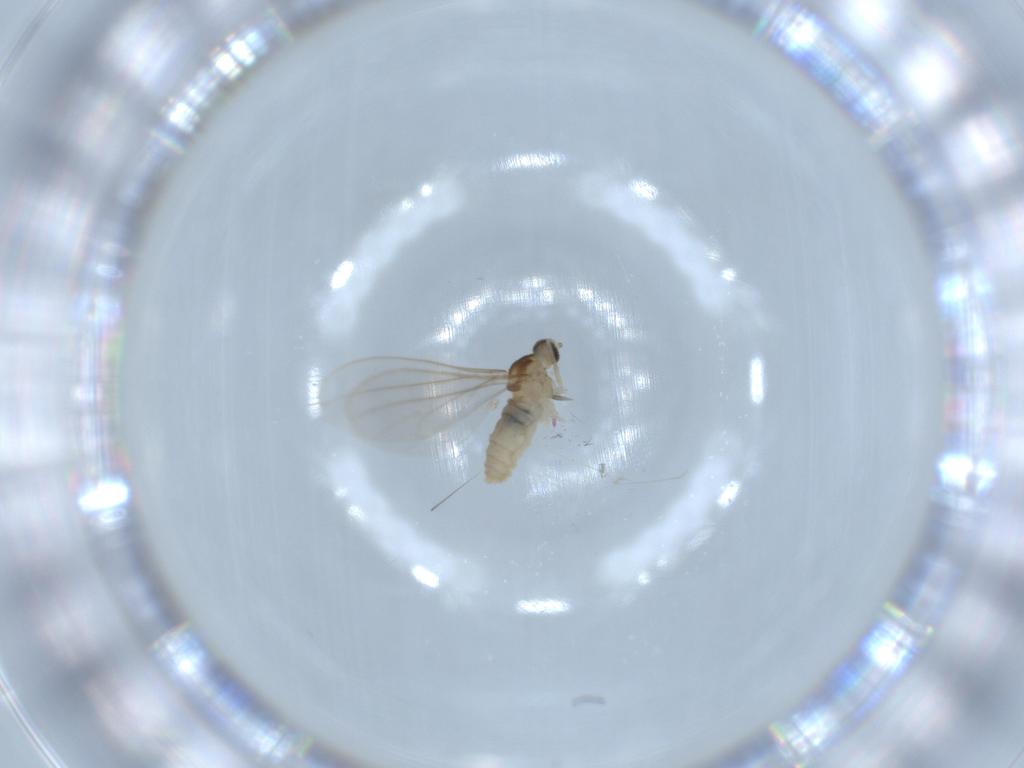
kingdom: Animalia
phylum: Arthropoda
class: Insecta
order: Diptera
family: Cecidomyiidae
